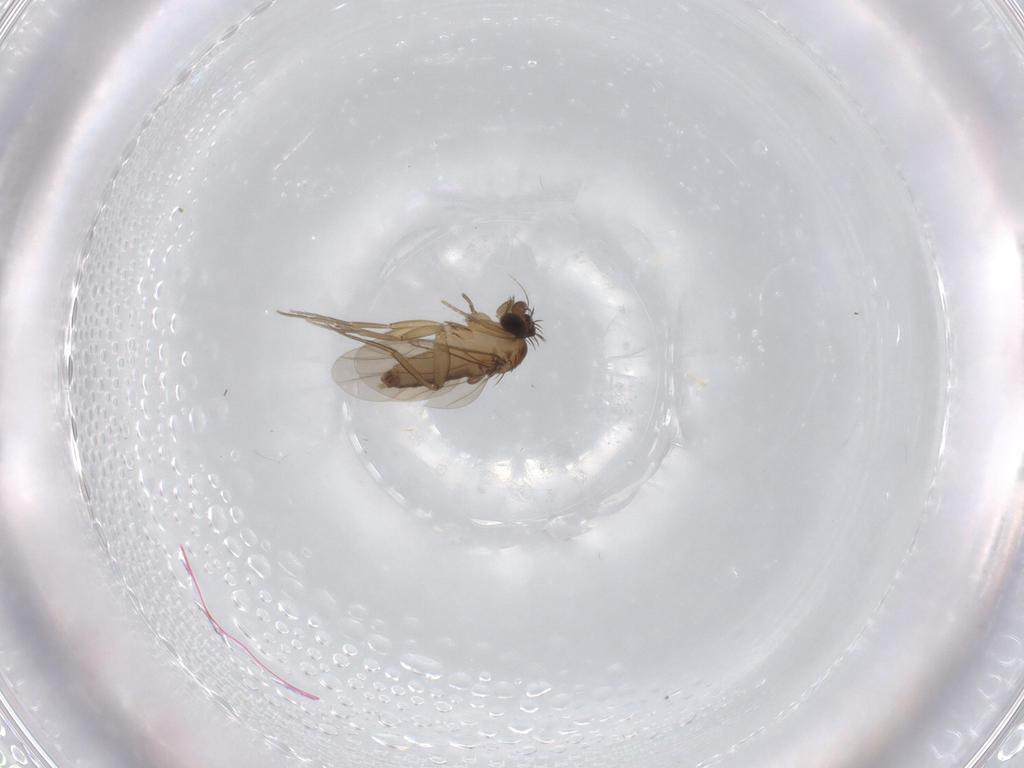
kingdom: Animalia
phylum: Arthropoda
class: Insecta
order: Diptera
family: Phoridae
